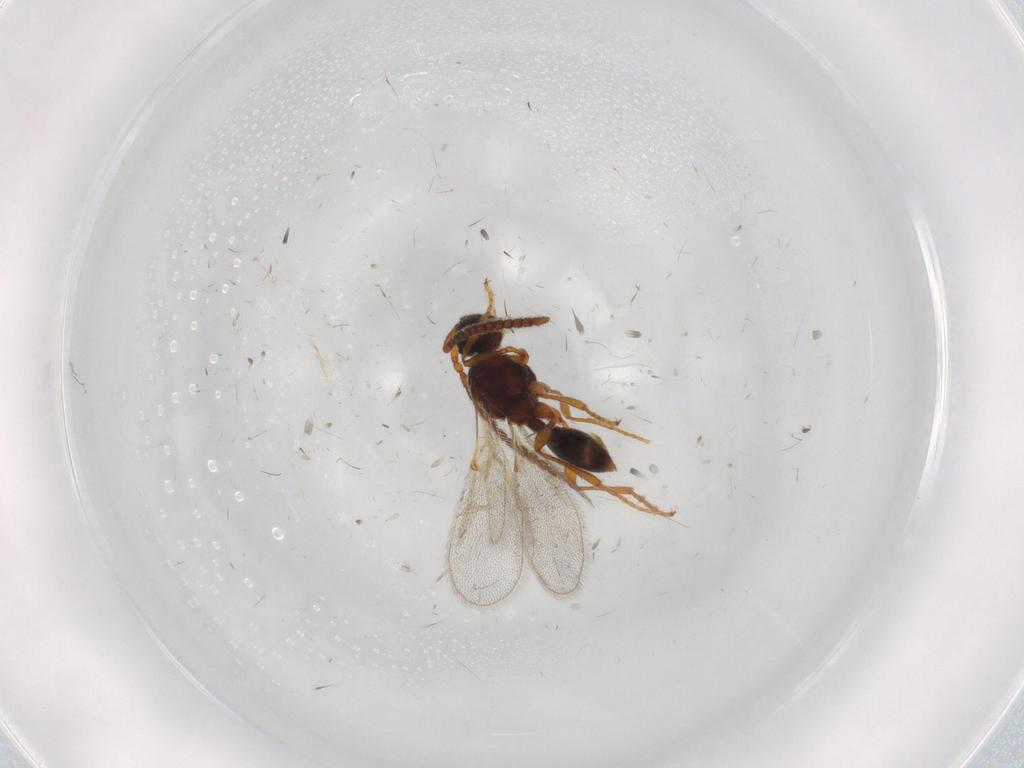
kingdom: Animalia
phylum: Arthropoda
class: Insecta
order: Hymenoptera
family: Diapriidae
